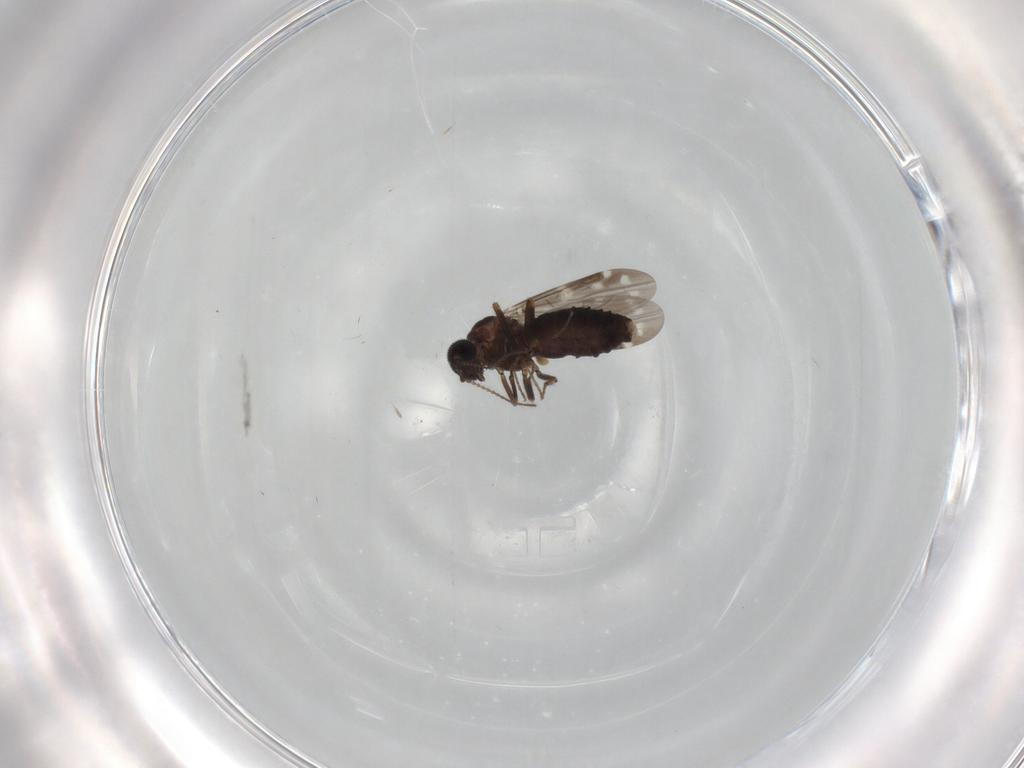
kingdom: Animalia
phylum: Arthropoda
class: Insecta
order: Diptera
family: Ceratopogonidae
